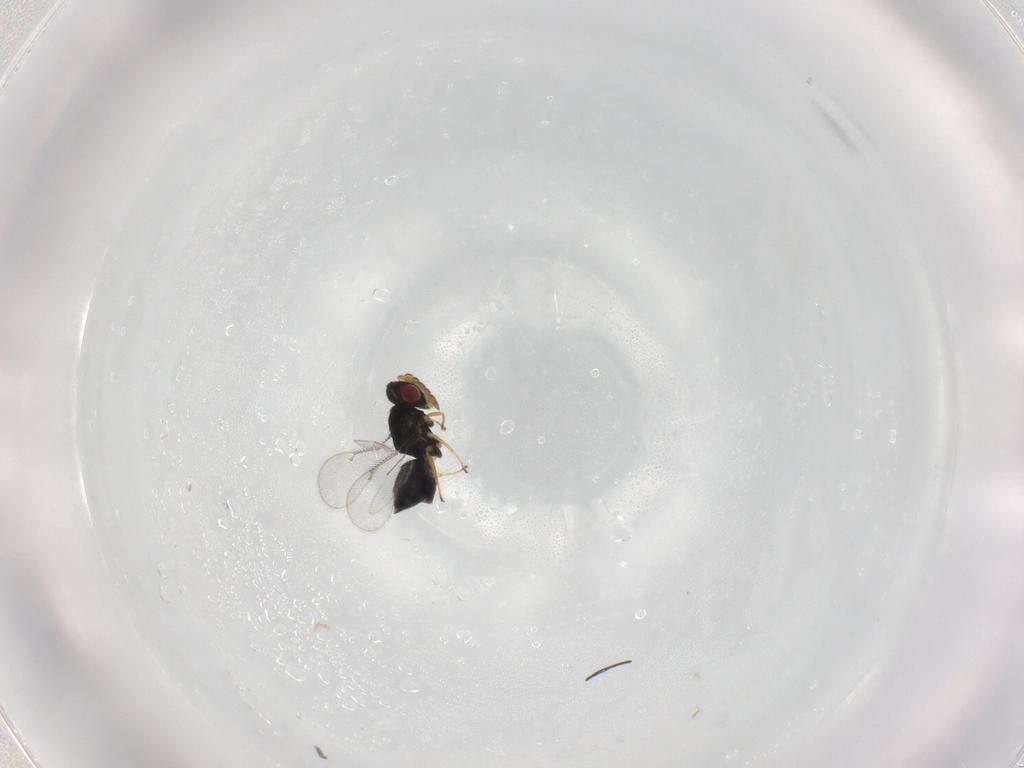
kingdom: Animalia
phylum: Arthropoda
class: Insecta
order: Hymenoptera
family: Eulophidae
